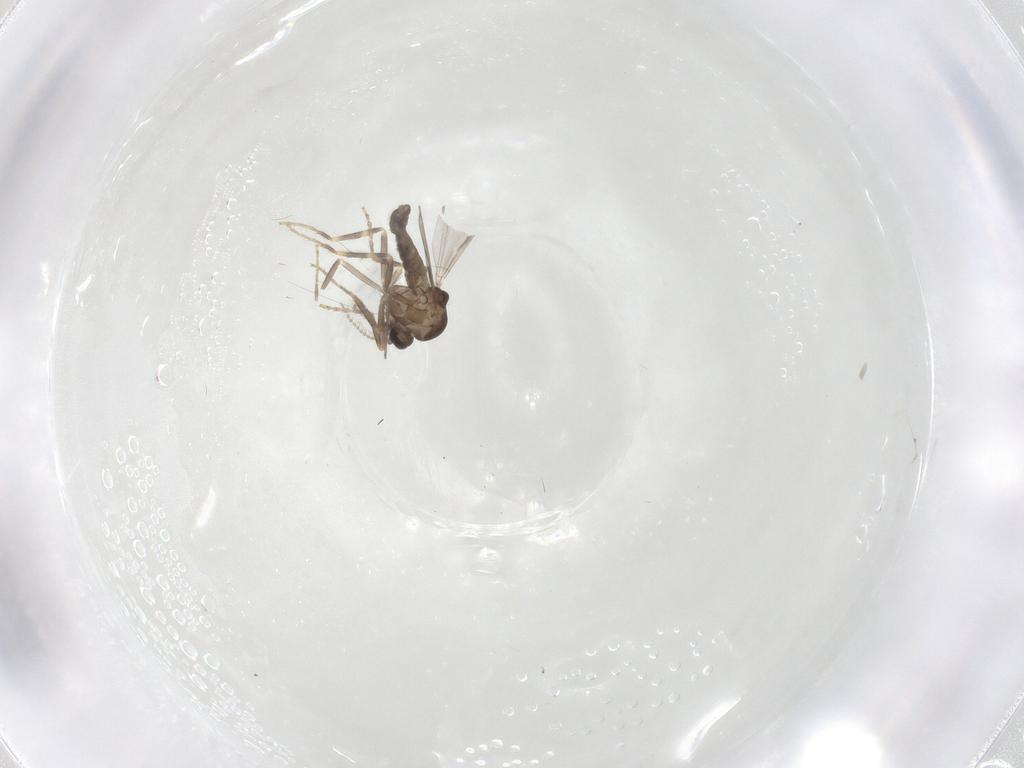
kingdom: Animalia
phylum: Arthropoda
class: Insecta
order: Diptera
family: Ceratopogonidae
